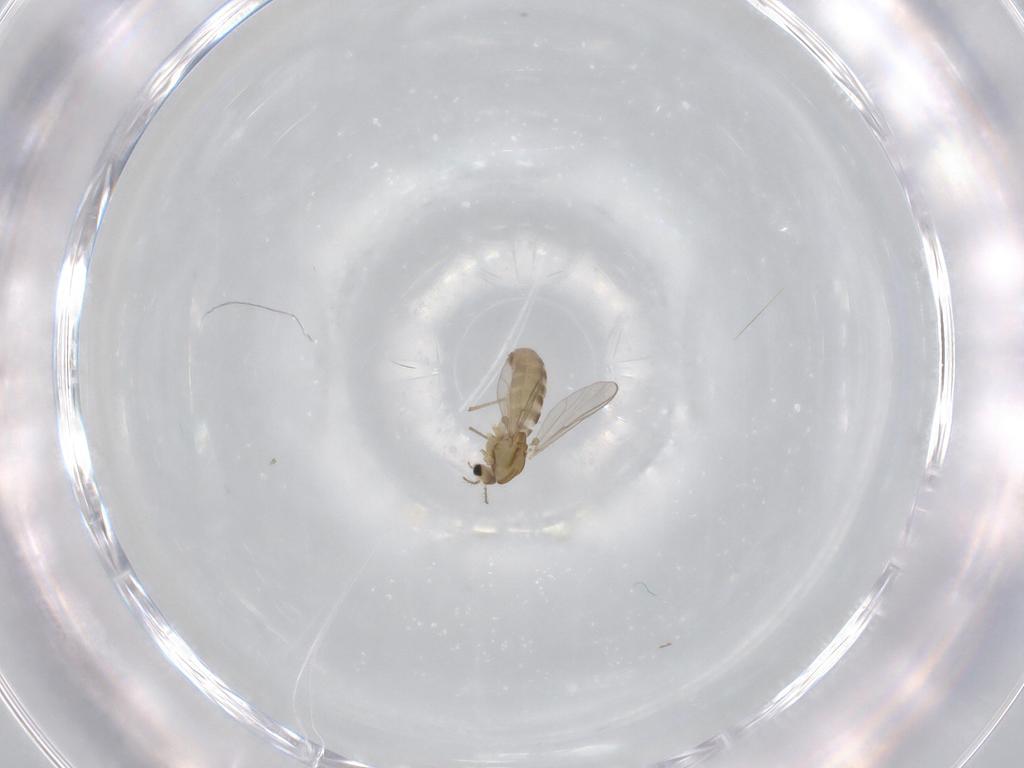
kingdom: Animalia
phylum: Arthropoda
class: Insecta
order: Diptera
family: Chironomidae
